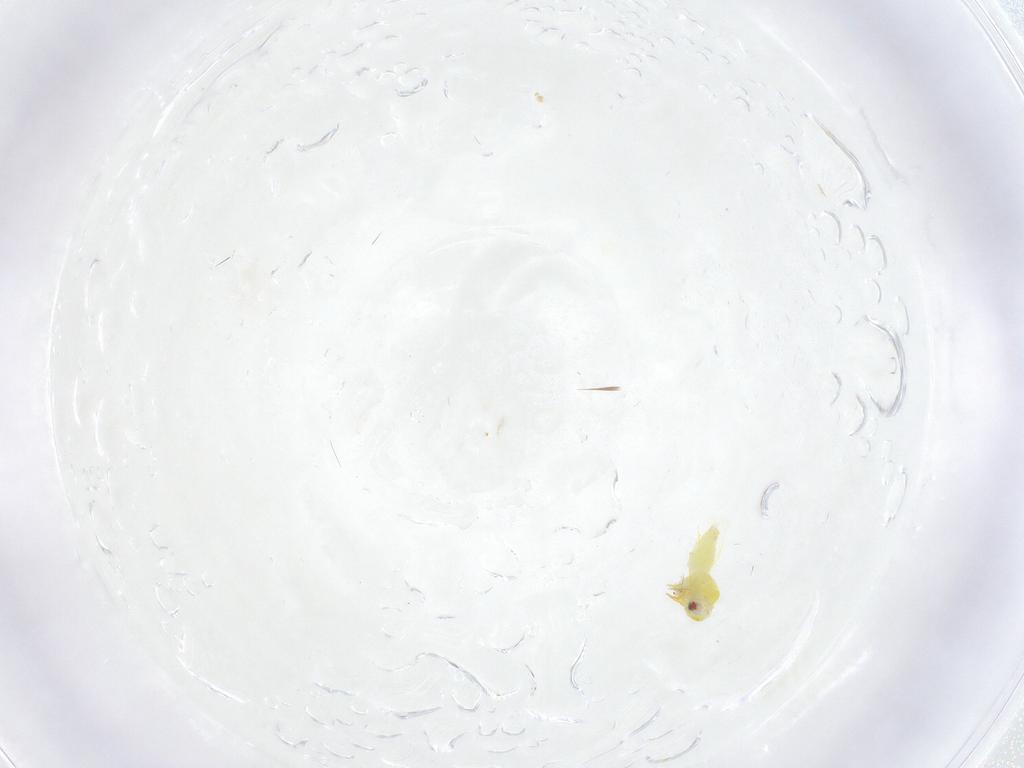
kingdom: Animalia
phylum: Arthropoda
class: Insecta
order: Hemiptera
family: Aleyrodidae
